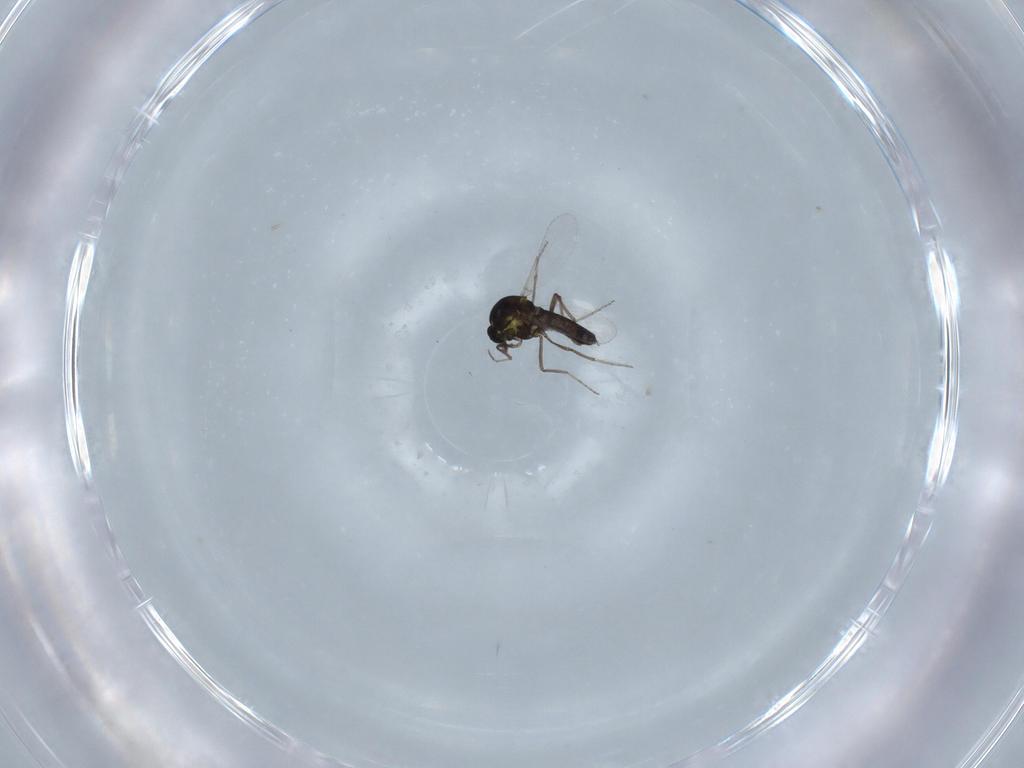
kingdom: Animalia
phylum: Arthropoda
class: Insecta
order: Diptera
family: Ceratopogonidae
